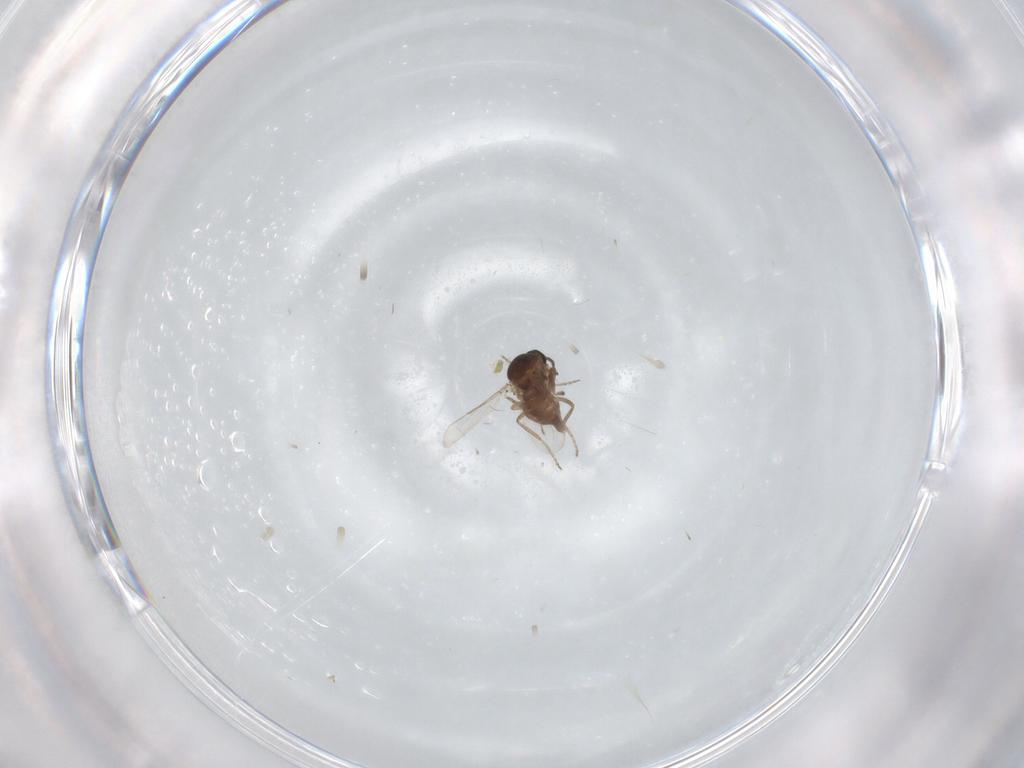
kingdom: Animalia
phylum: Arthropoda
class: Insecta
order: Diptera
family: Ceratopogonidae
